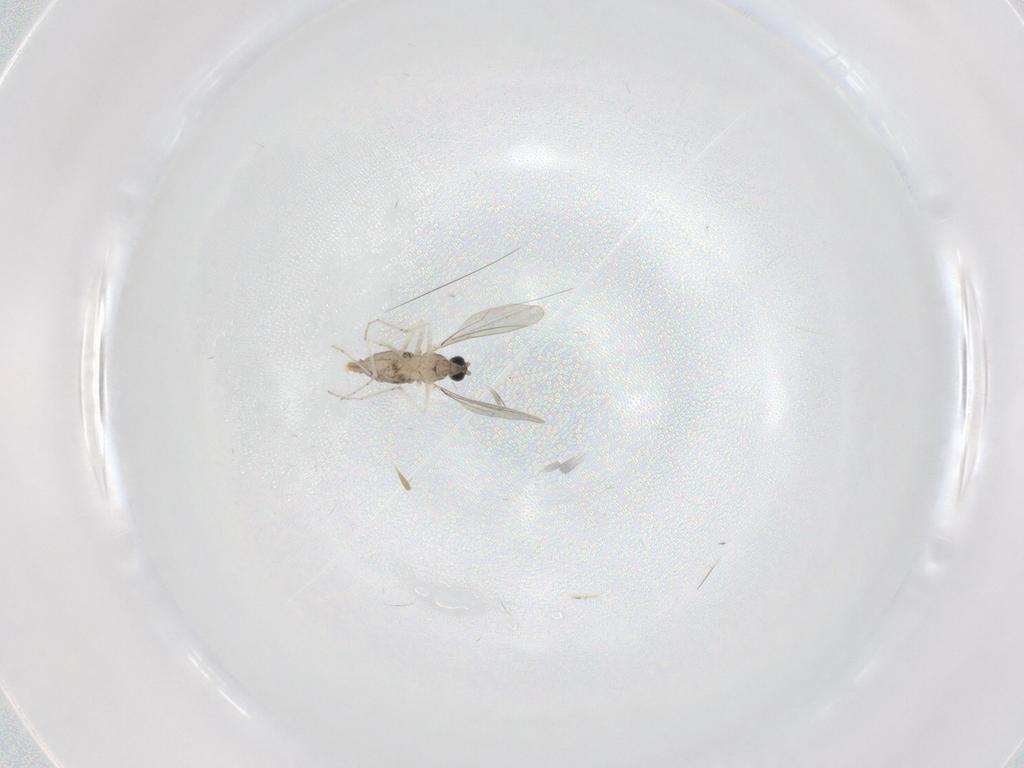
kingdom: Animalia
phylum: Arthropoda
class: Insecta
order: Diptera
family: Cecidomyiidae
